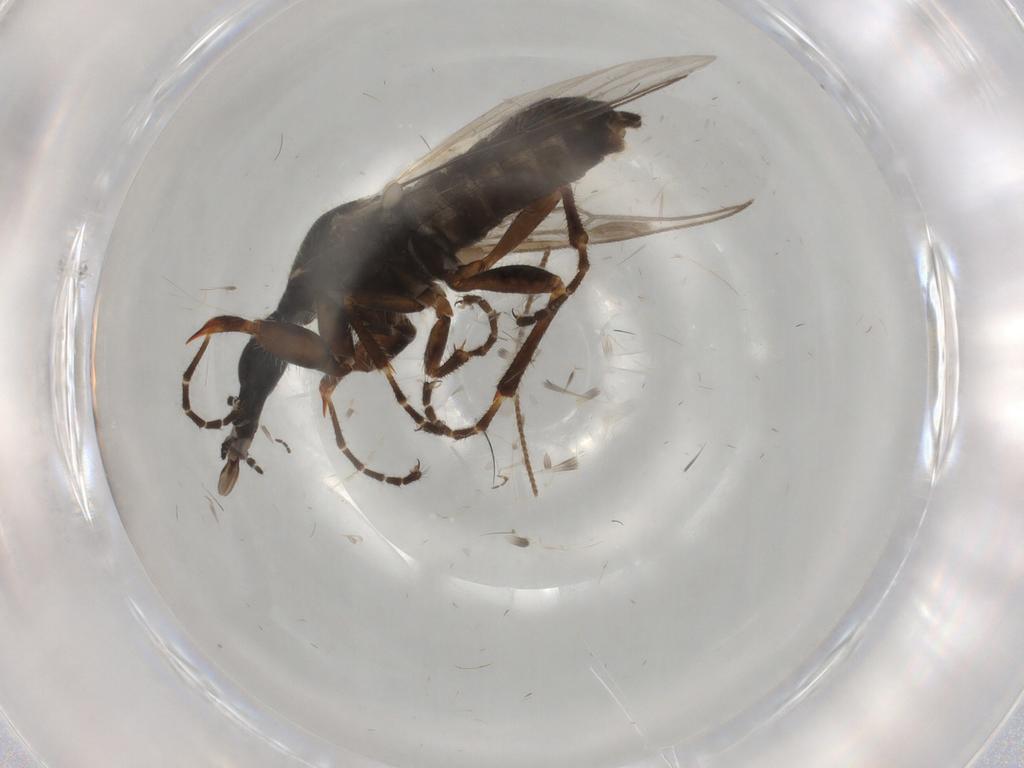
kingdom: Animalia
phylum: Arthropoda
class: Insecta
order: Diptera
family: Bibionidae
